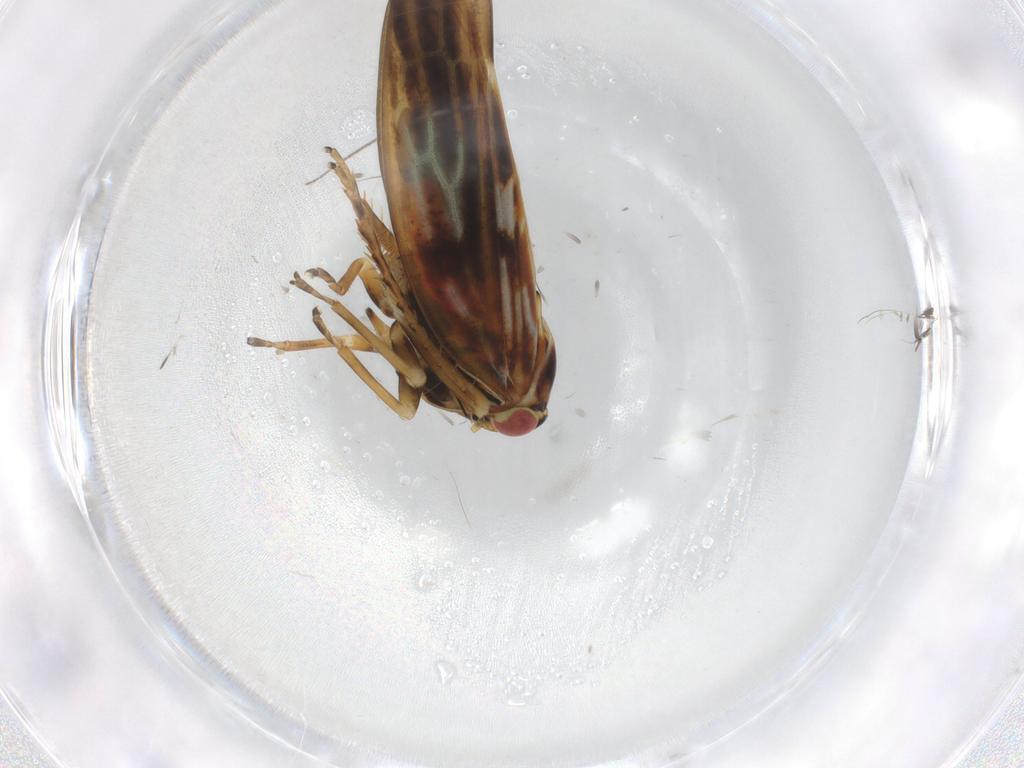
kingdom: Animalia
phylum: Arthropoda
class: Insecta
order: Hemiptera
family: Cicadellidae
